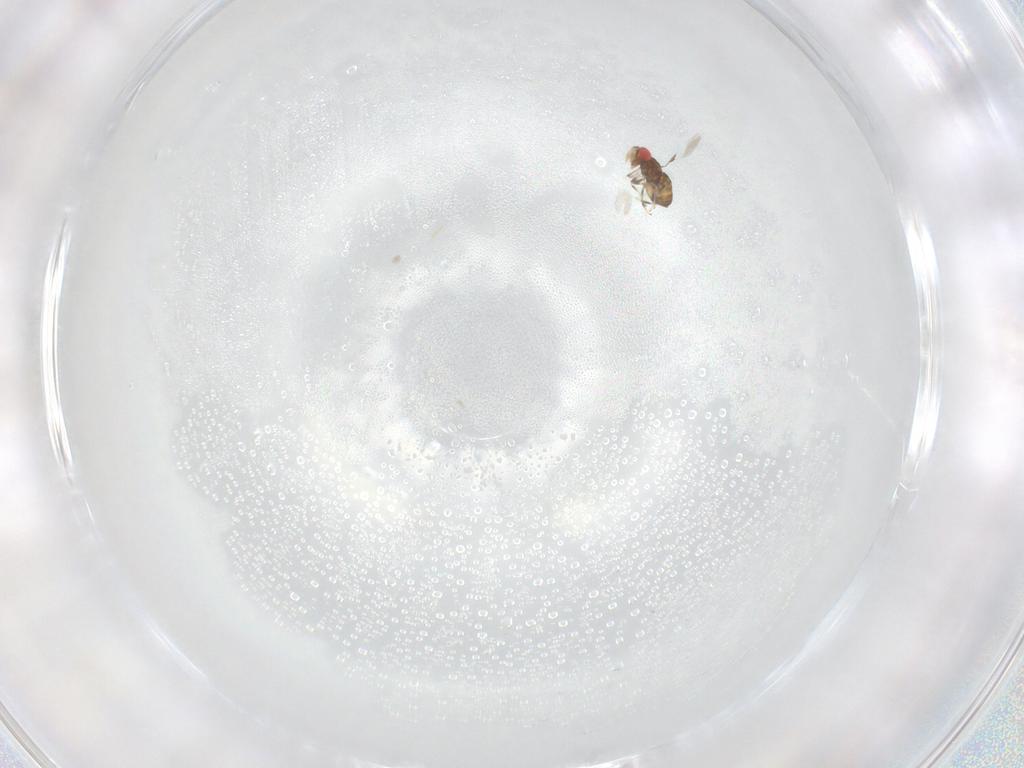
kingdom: Animalia
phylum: Arthropoda
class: Insecta
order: Hymenoptera
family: Trichogrammatidae
